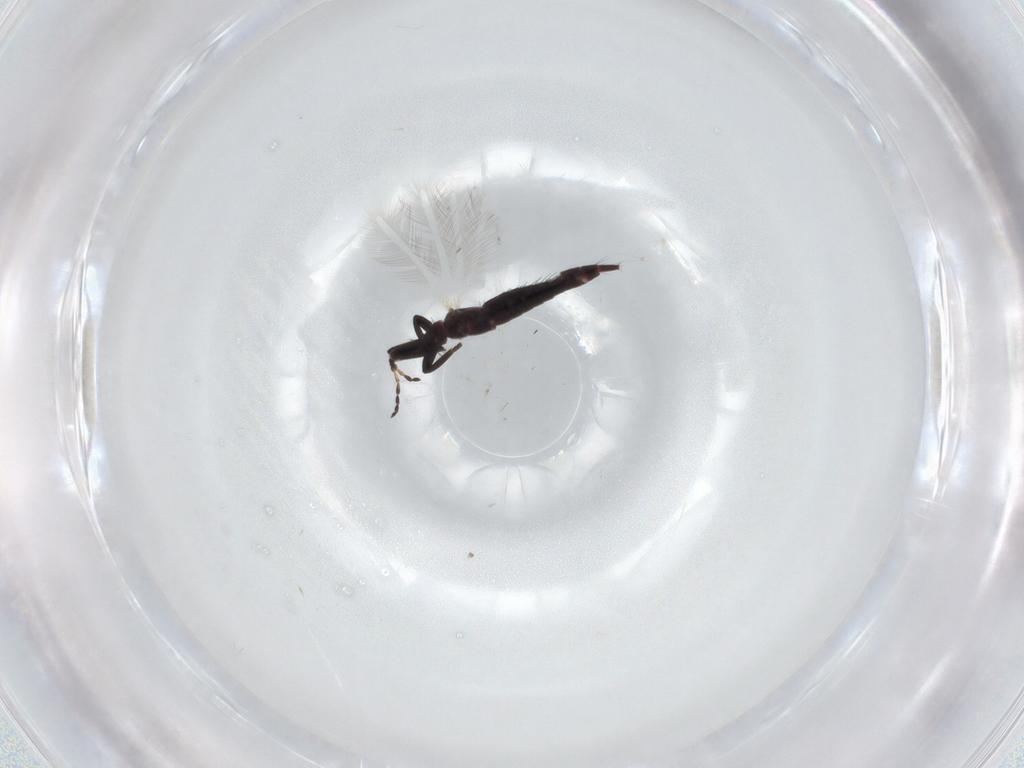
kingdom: Animalia
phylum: Arthropoda
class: Insecta
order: Thysanoptera
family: Phlaeothripidae
